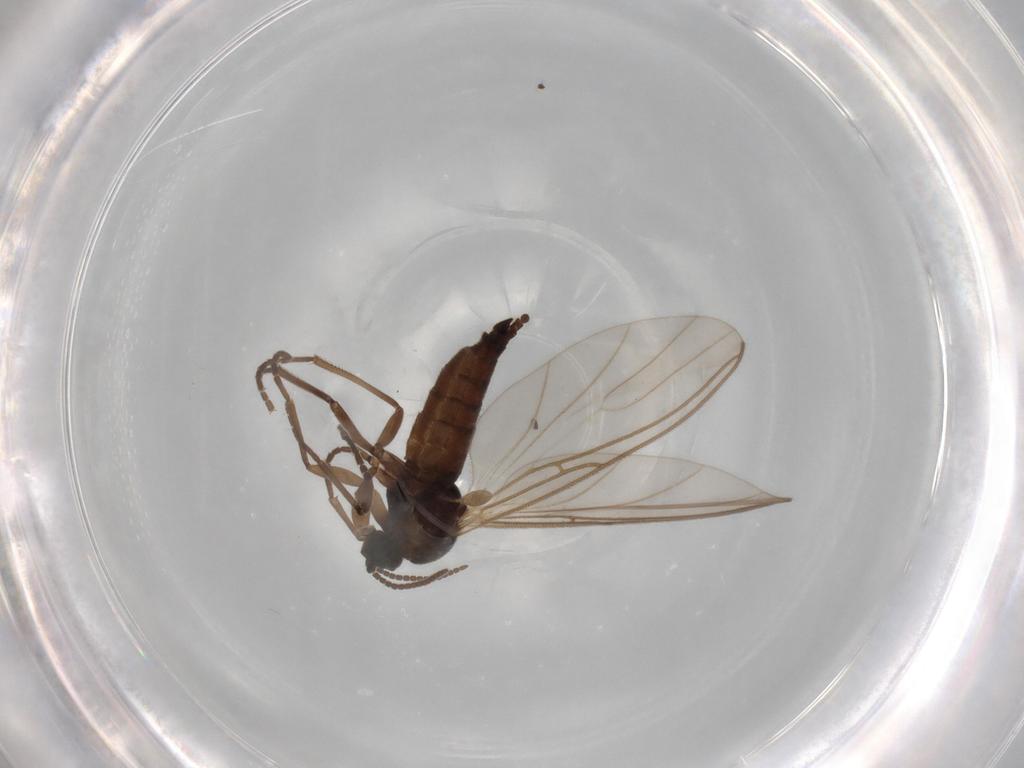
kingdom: Animalia
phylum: Arthropoda
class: Insecta
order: Diptera
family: Sciaridae
